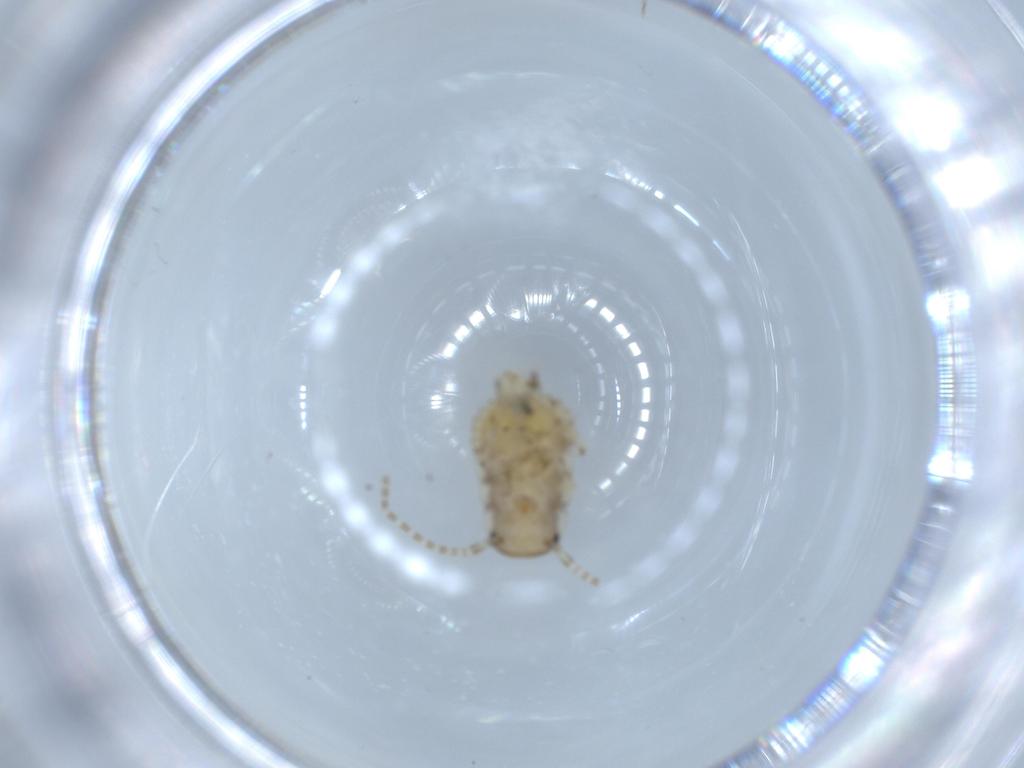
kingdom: Animalia
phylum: Arthropoda
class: Insecta
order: Blattodea
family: Ectobiidae
